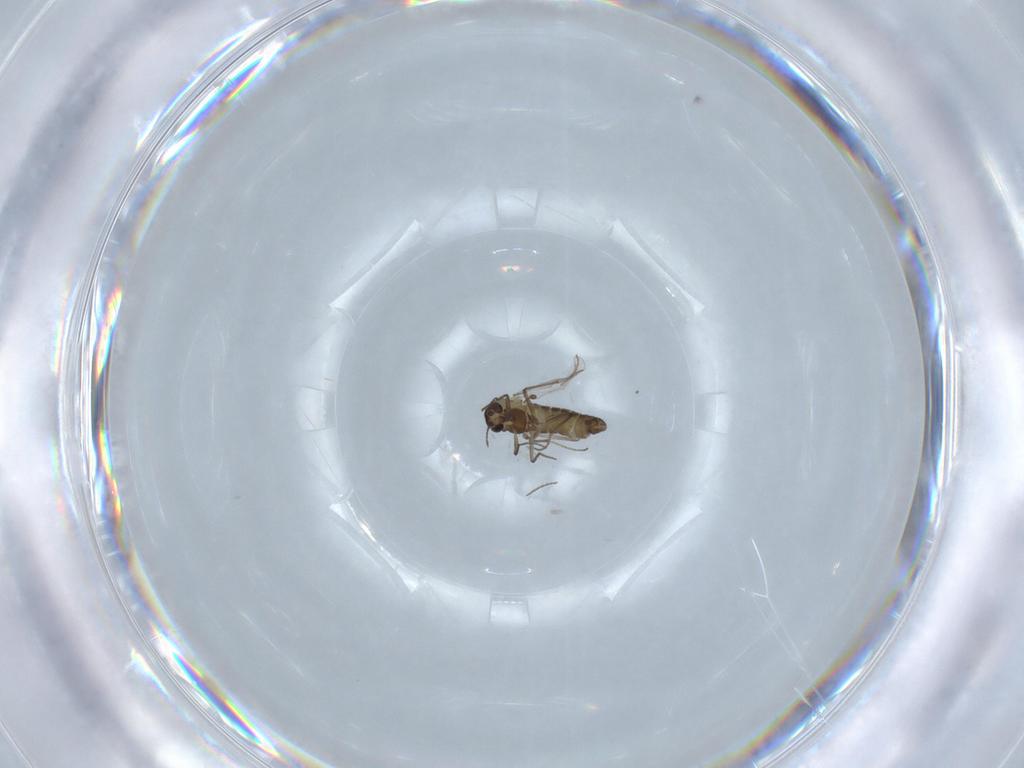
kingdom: Animalia
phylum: Arthropoda
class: Insecta
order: Diptera
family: Chironomidae
